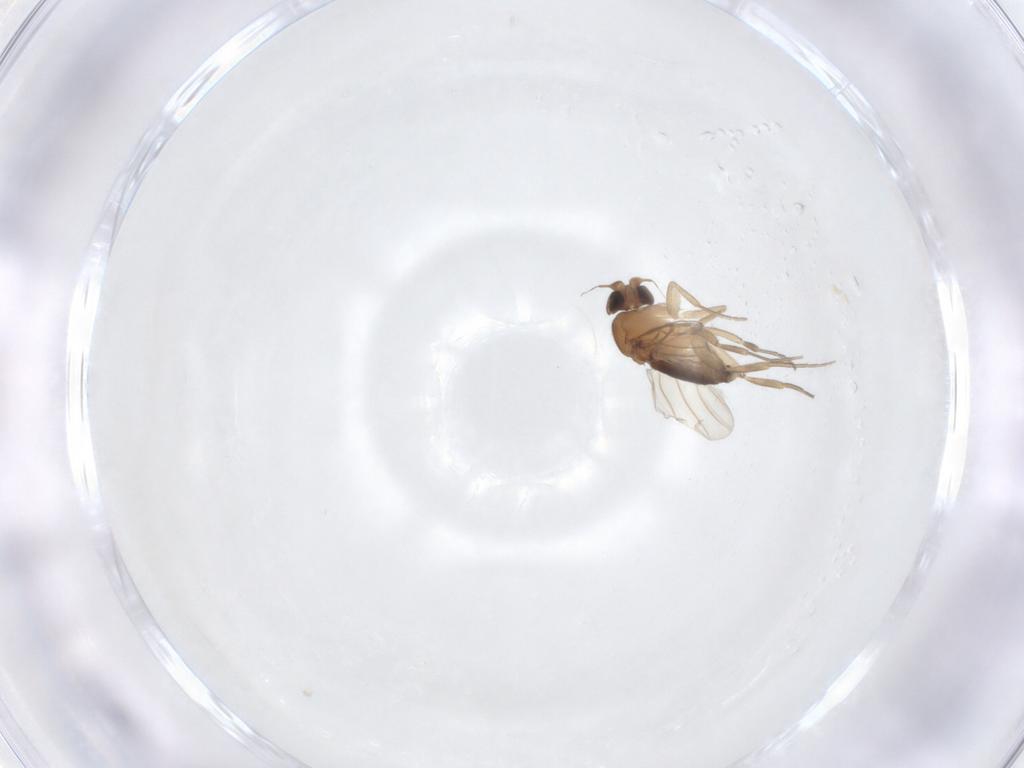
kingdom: Animalia
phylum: Arthropoda
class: Insecta
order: Diptera
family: Phoridae
